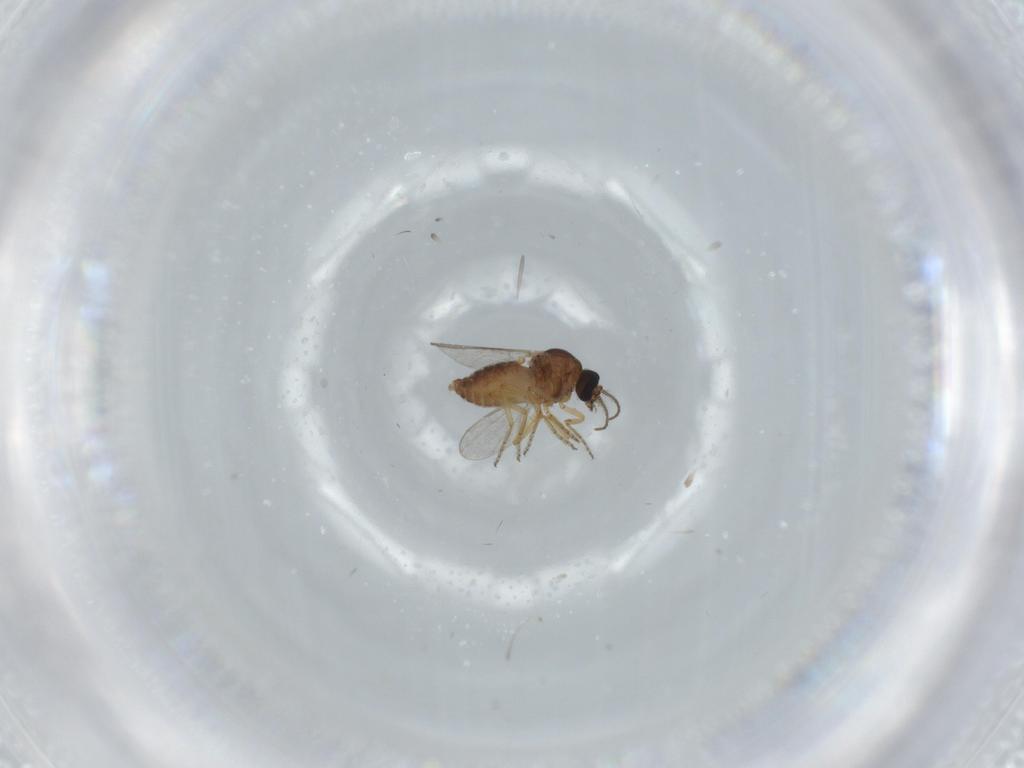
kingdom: Animalia
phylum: Arthropoda
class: Insecta
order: Diptera
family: Ceratopogonidae
